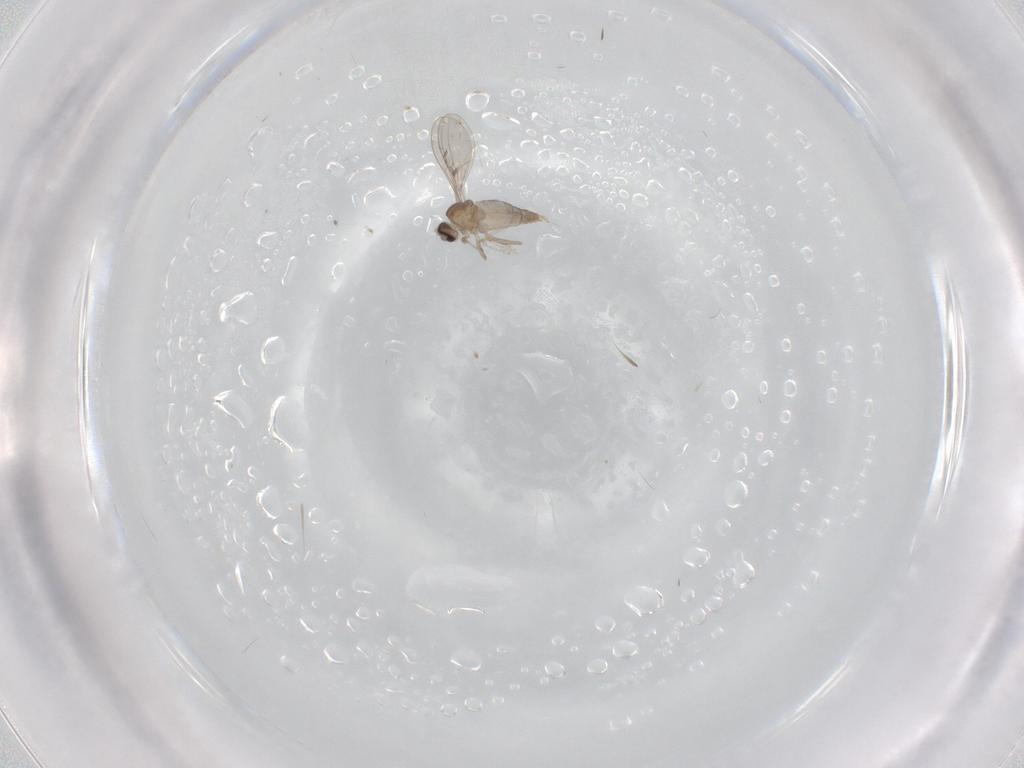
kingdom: Animalia
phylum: Arthropoda
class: Insecta
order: Diptera
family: Cecidomyiidae
